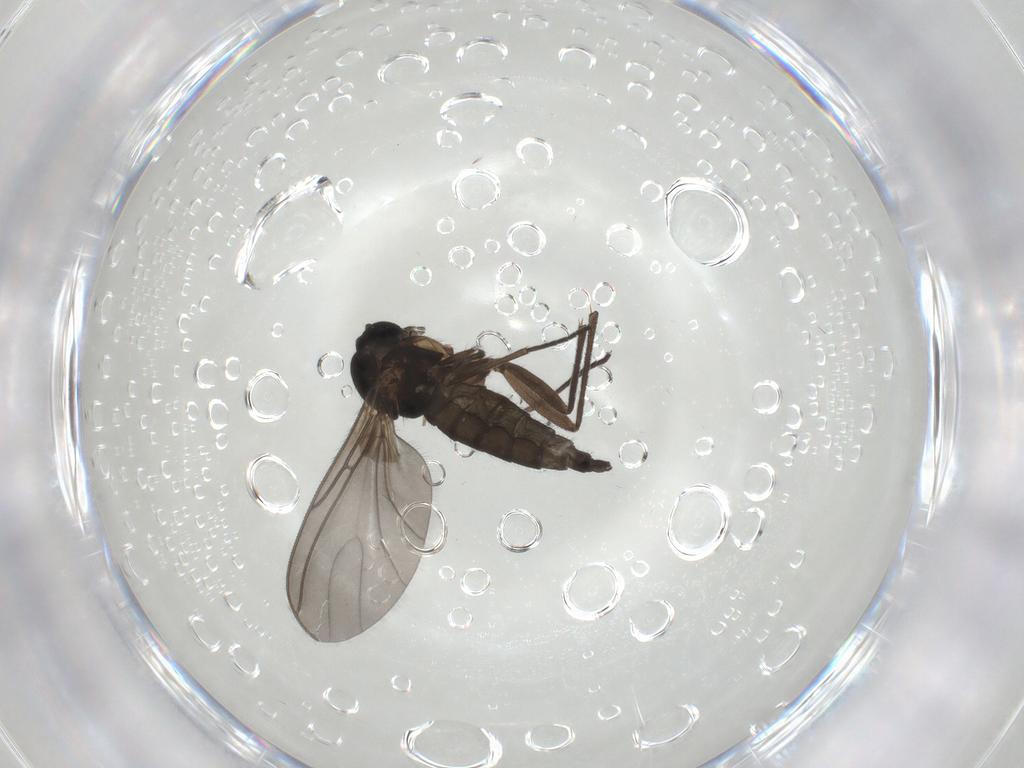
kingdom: Animalia
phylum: Arthropoda
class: Insecta
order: Diptera
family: Sciaridae
